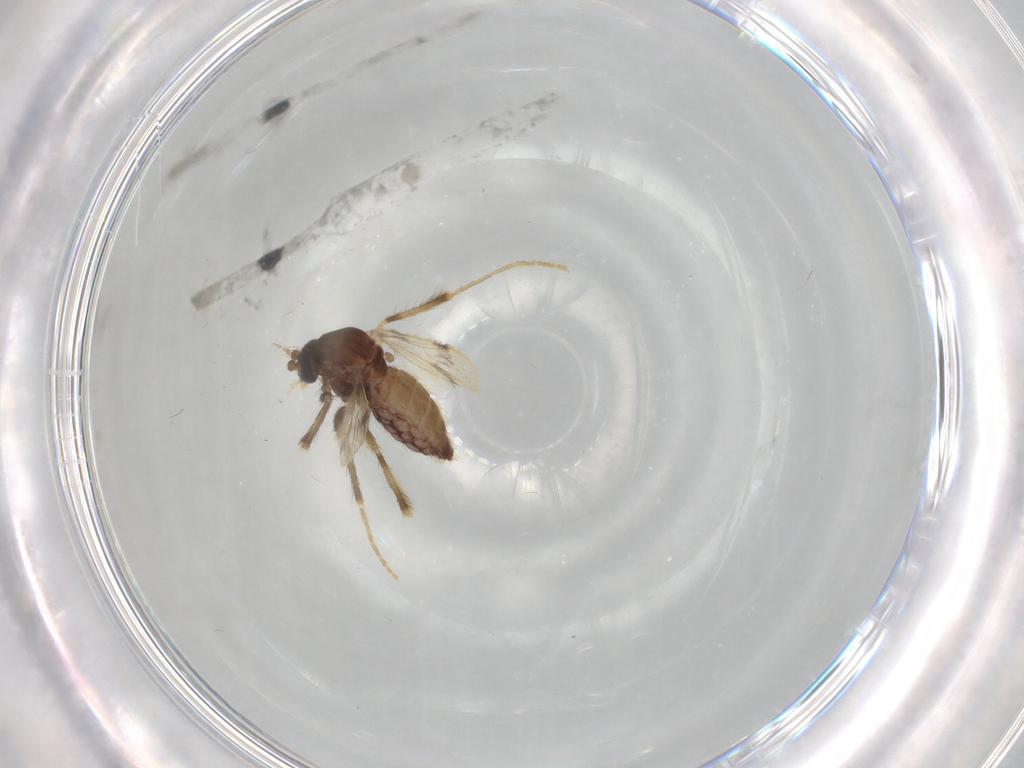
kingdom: Animalia
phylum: Arthropoda
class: Insecta
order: Diptera
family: Corethrellidae
